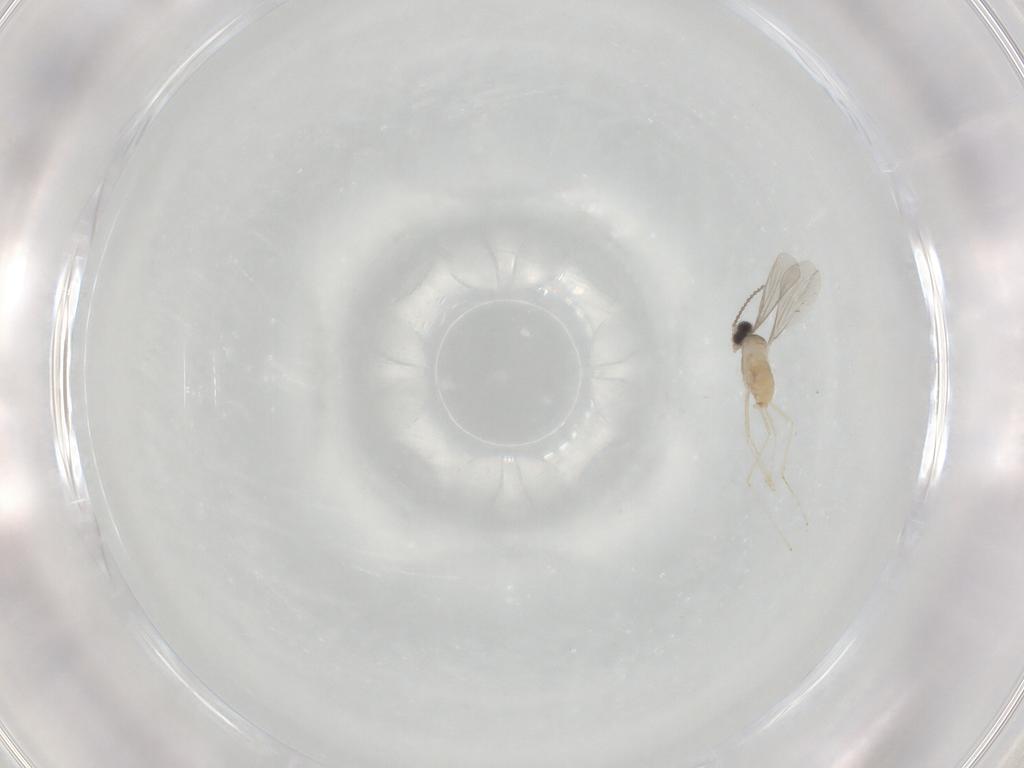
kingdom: Animalia
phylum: Arthropoda
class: Insecta
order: Diptera
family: Cecidomyiidae
